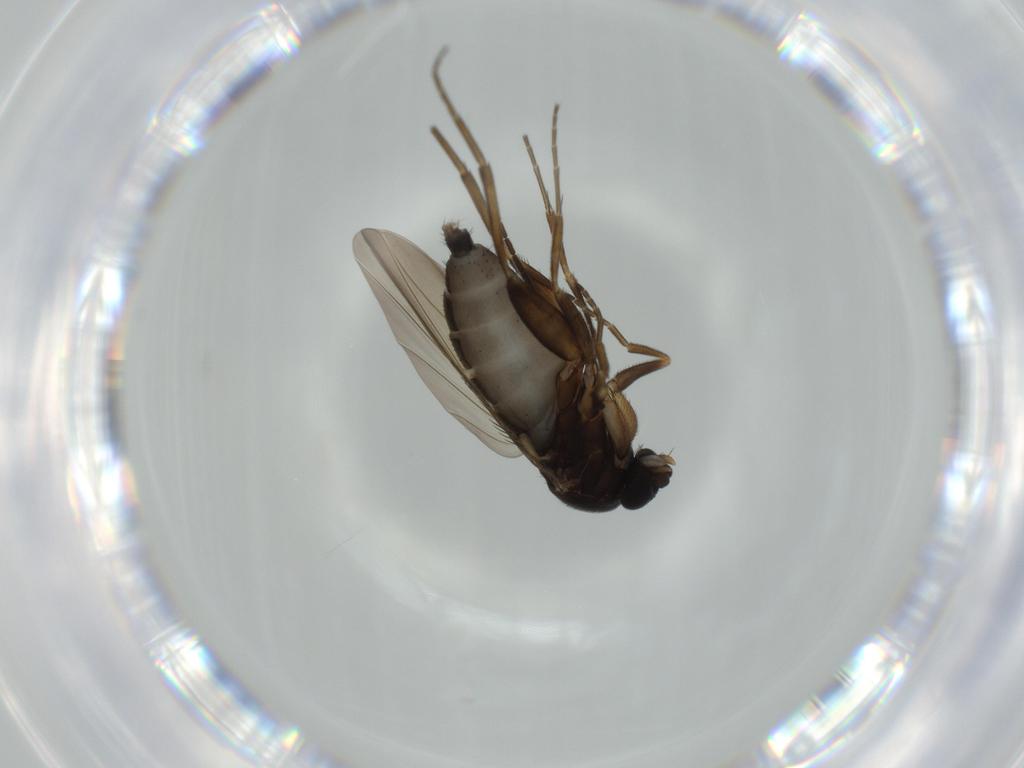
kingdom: Animalia
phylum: Arthropoda
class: Insecta
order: Diptera
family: Phoridae
